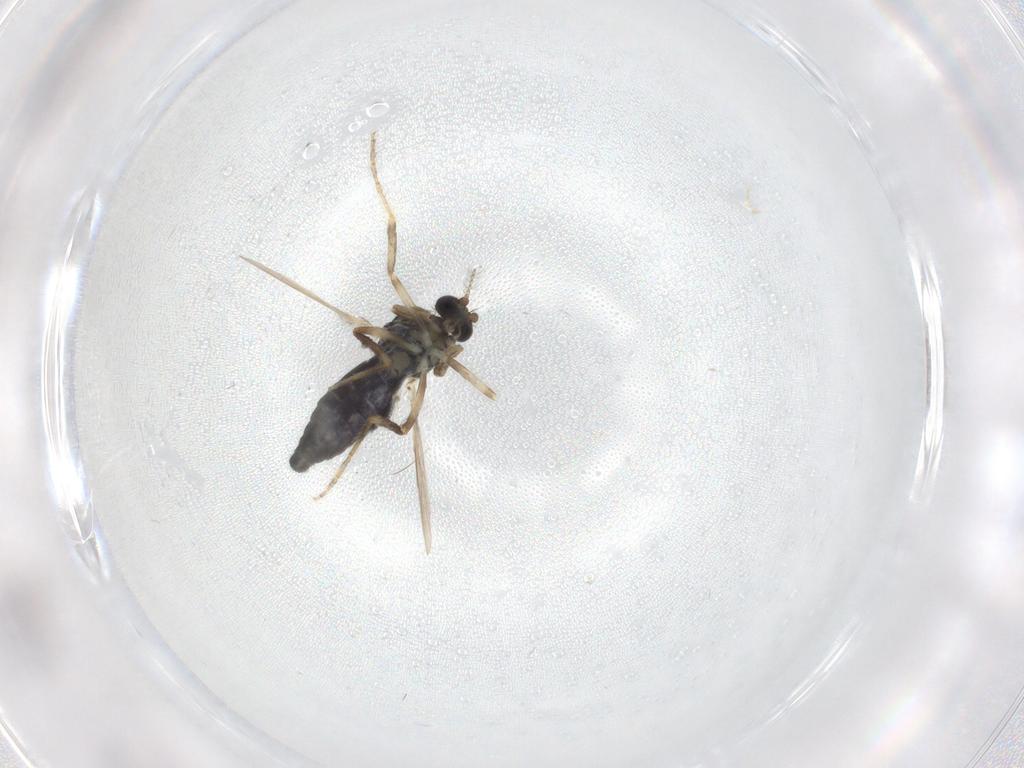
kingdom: Animalia
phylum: Arthropoda
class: Insecta
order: Diptera
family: Sciaridae
